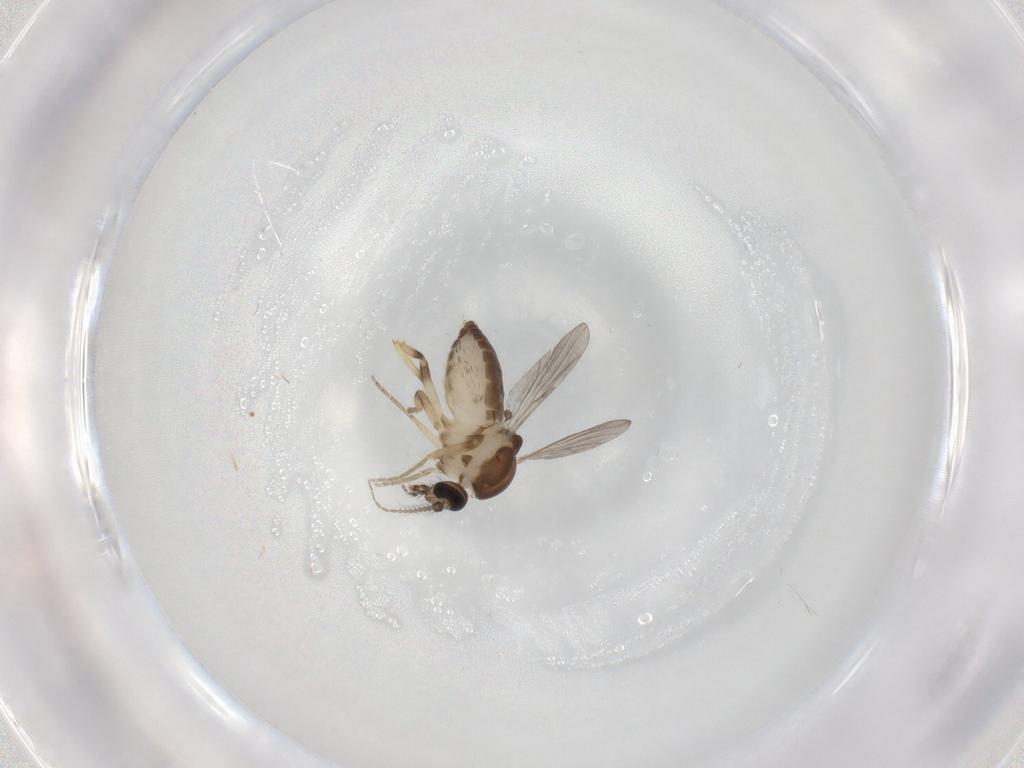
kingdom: Animalia
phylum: Arthropoda
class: Insecta
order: Diptera
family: Ceratopogonidae
